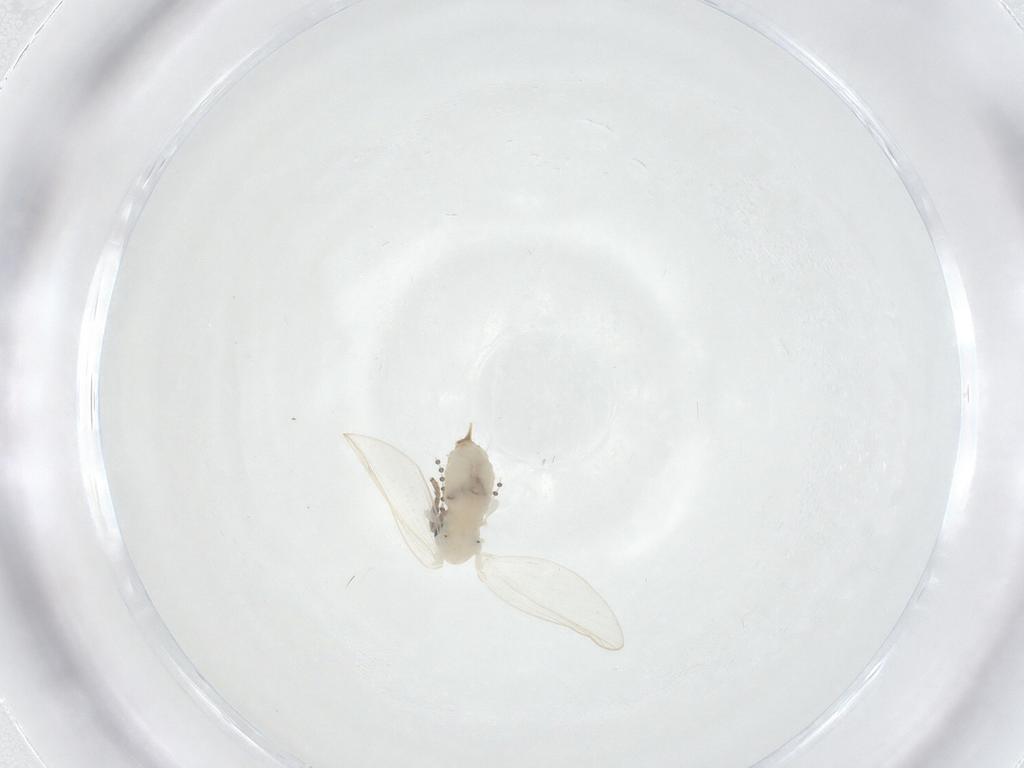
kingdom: Animalia
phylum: Arthropoda
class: Insecta
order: Diptera
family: Psychodidae
